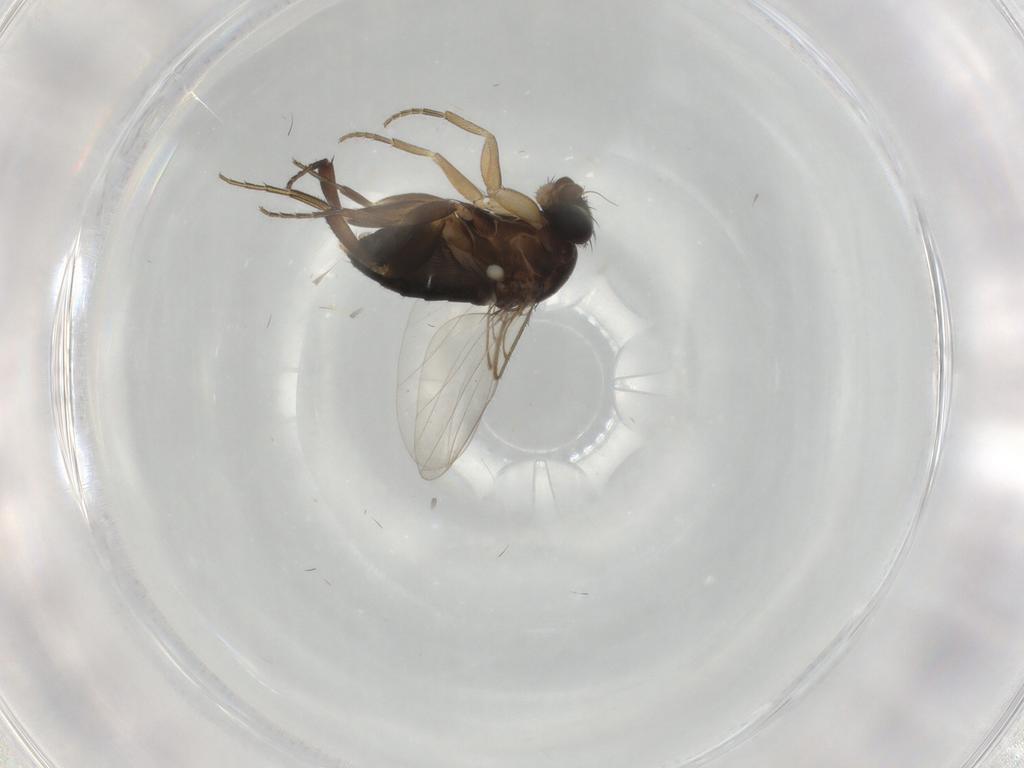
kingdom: Animalia
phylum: Arthropoda
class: Insecta
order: Diptera
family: Phoridae
